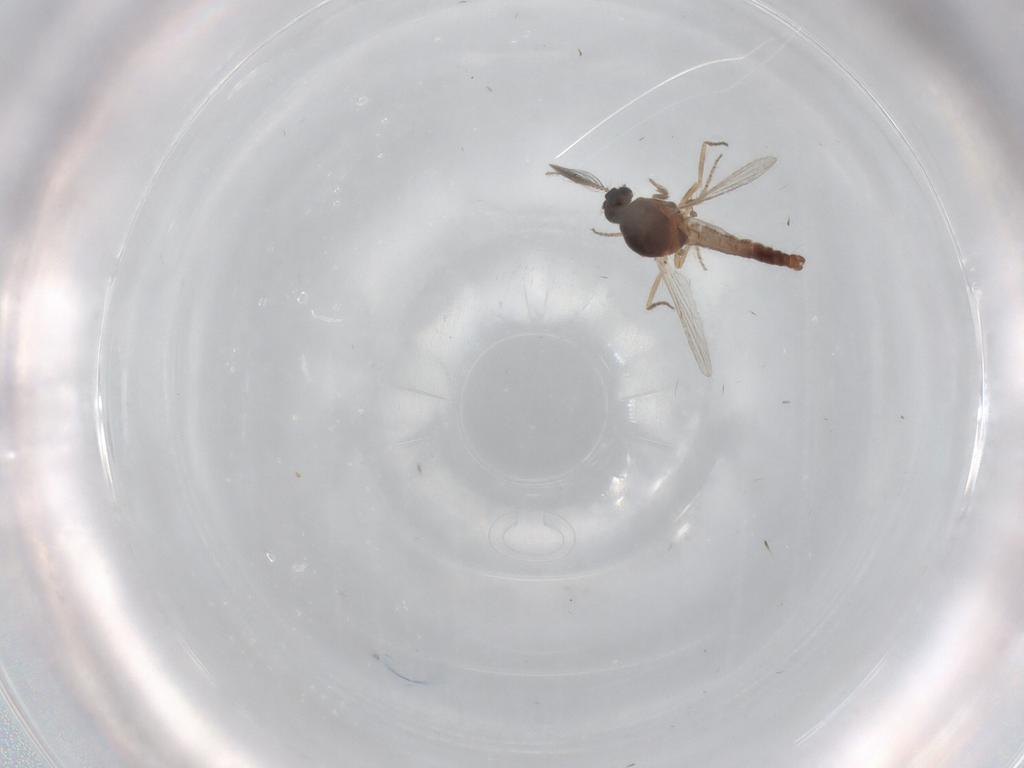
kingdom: Animalia
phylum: Arthropoda
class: Insecta
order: Diptera
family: Ceratopogonidae
